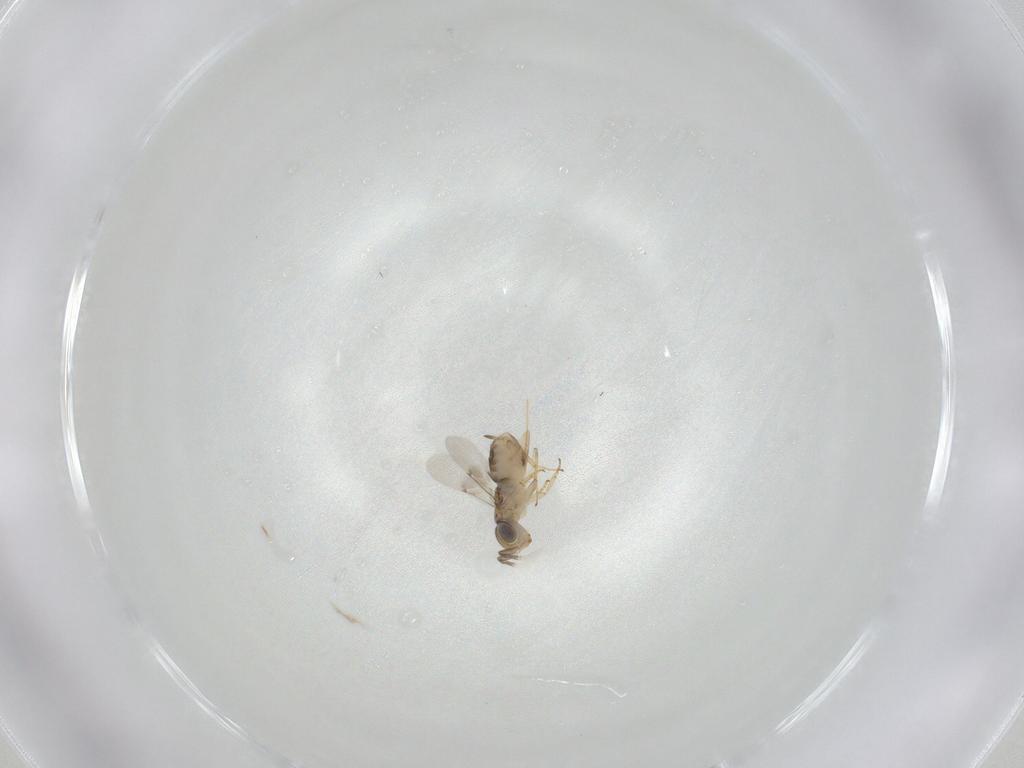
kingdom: Animalia
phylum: Arthropoda
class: Insecta
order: Hymenoptera
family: Encyrtidae
